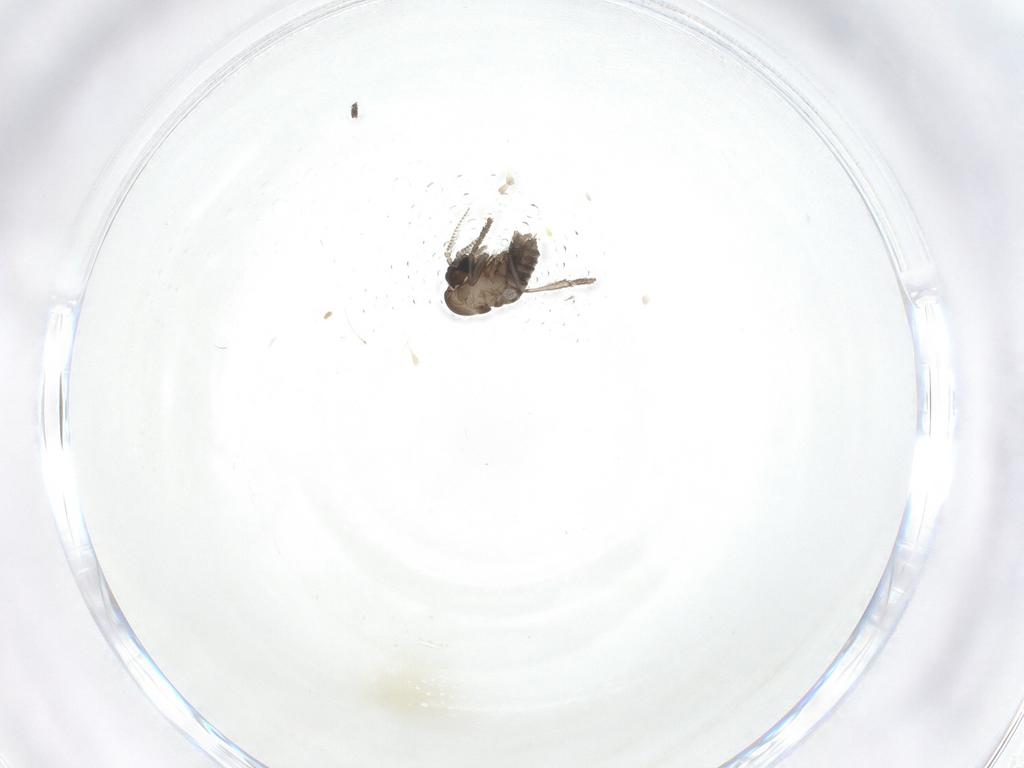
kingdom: Animalia
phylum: Arthropoda
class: Insecta
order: Diptera
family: Psychodidae
